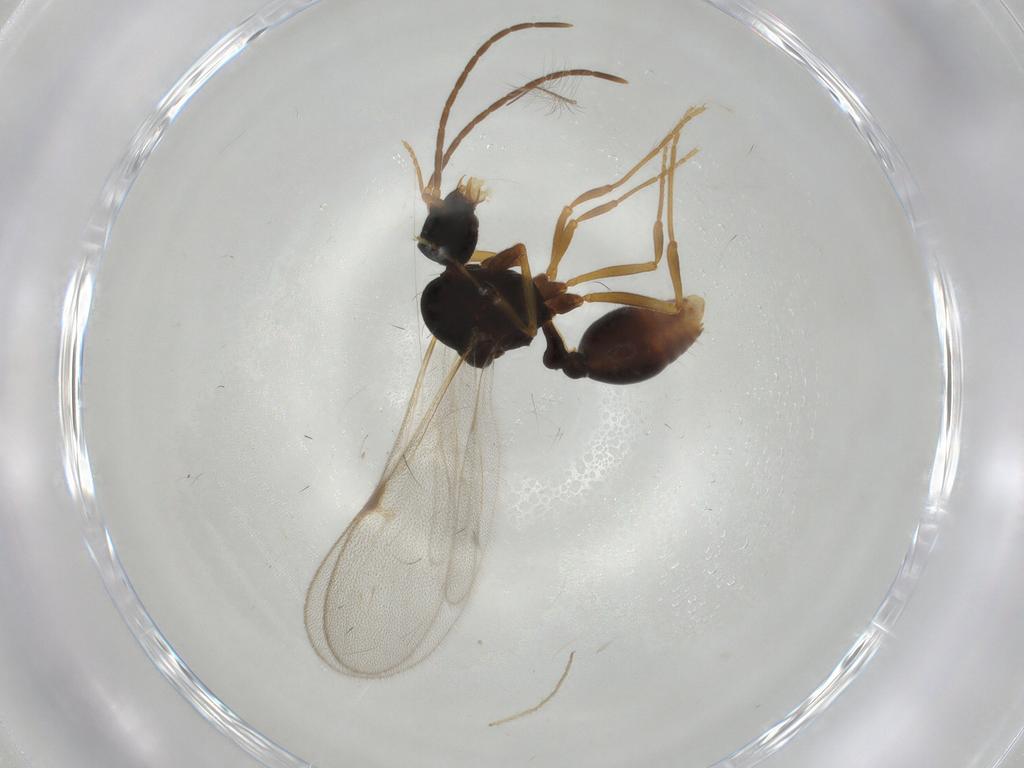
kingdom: Animalia
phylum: Arthropoda
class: Insecta
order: Hymenoptera
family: Formicidae
